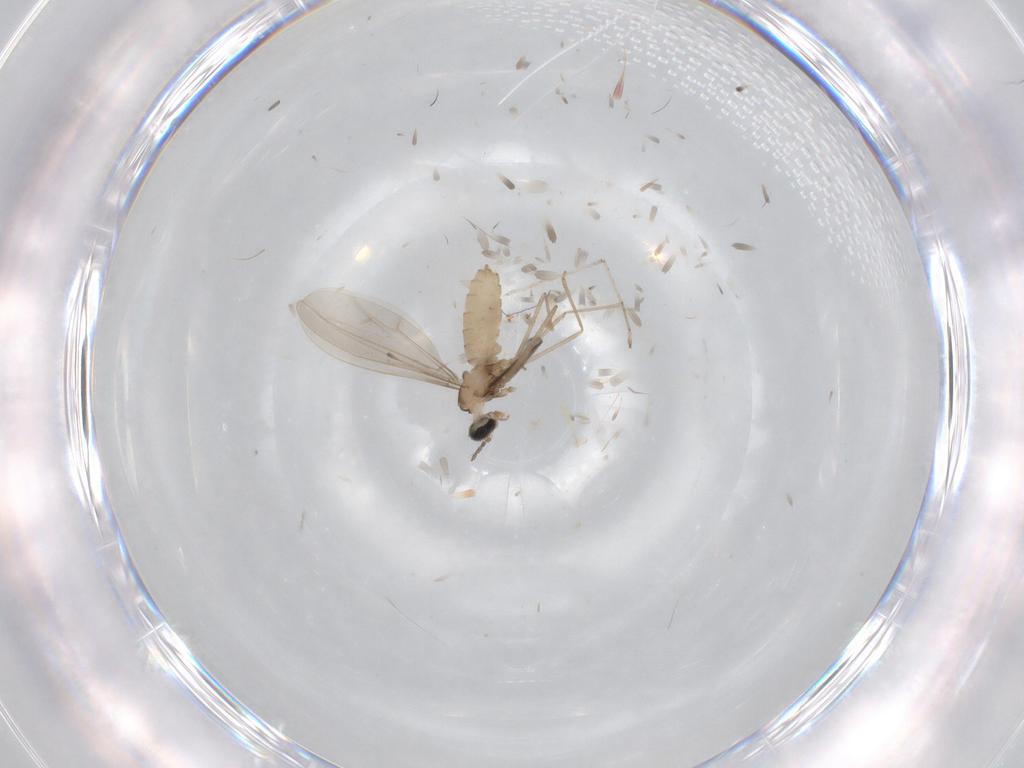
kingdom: Animalia
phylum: Arthropoda
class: Insecta
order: Diptera
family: Cecidomyiidae
